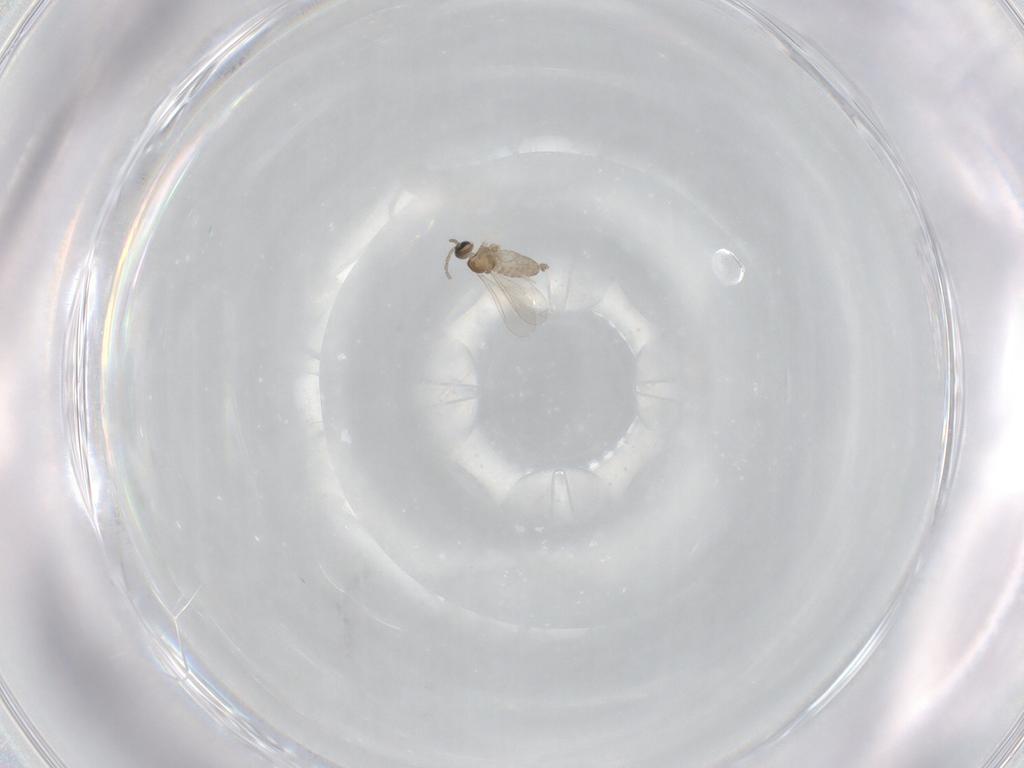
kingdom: Animalia
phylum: Arthropoda
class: Insecta
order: Diptera
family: Cecidomyiidae
